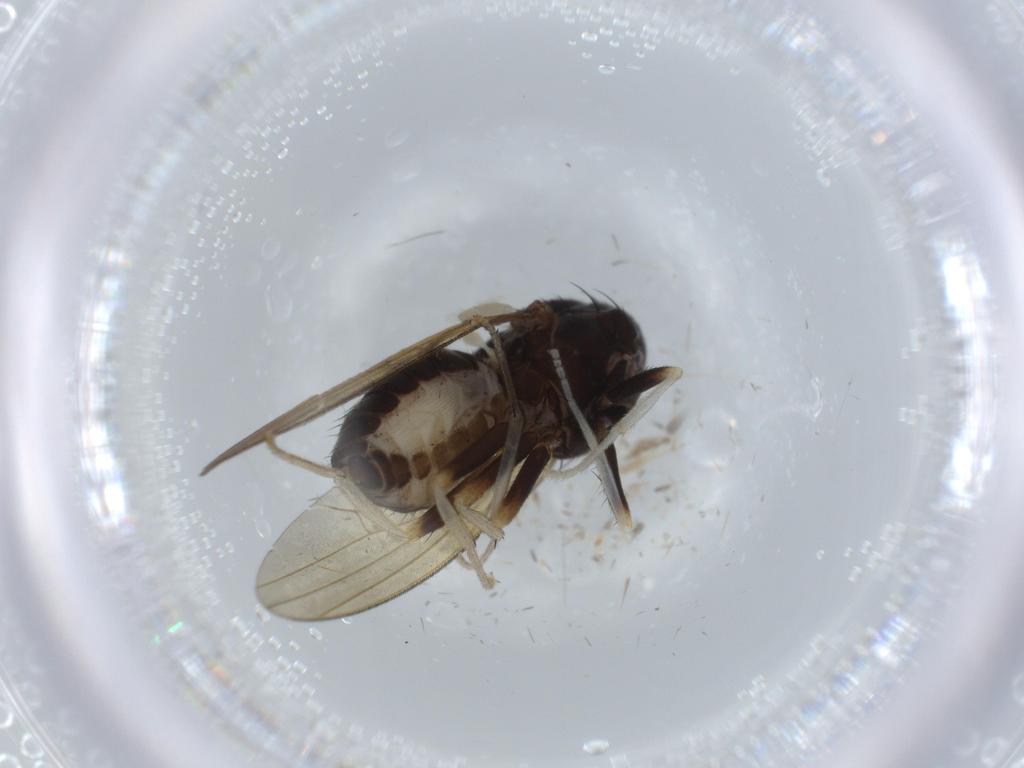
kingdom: Animalia
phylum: Arthropoda
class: Insecta
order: Diptera
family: Lauxaniidae
